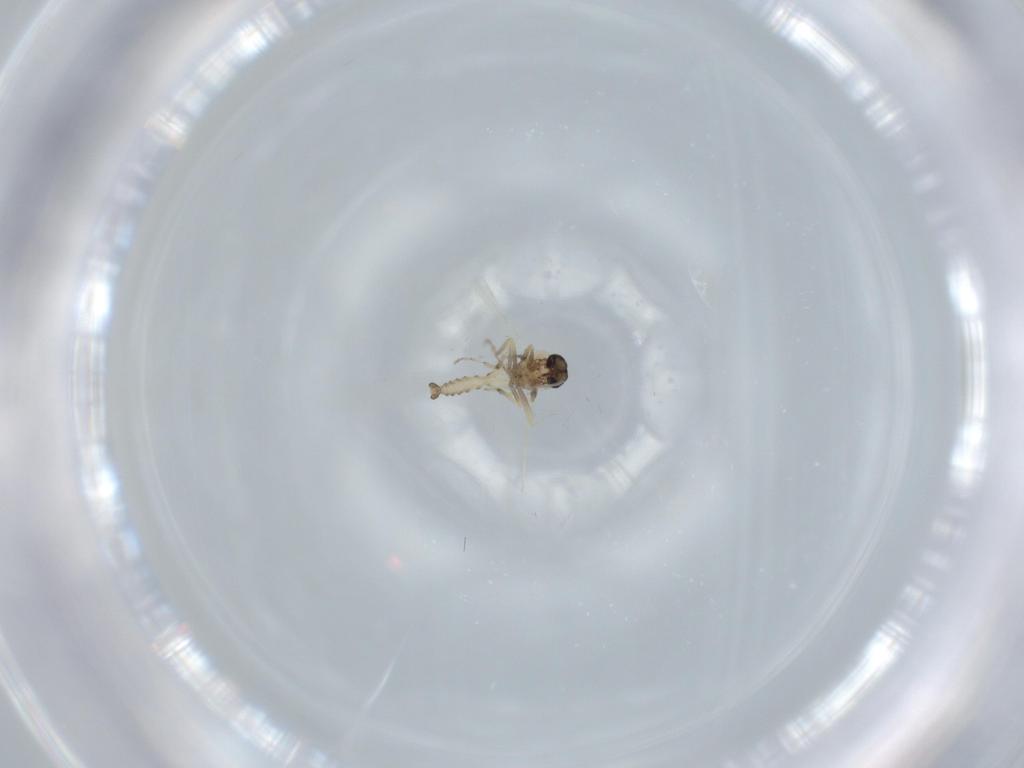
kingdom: Animalia
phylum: Arthropoda
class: Insecta
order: Diptera
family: Ceratopogonidae
